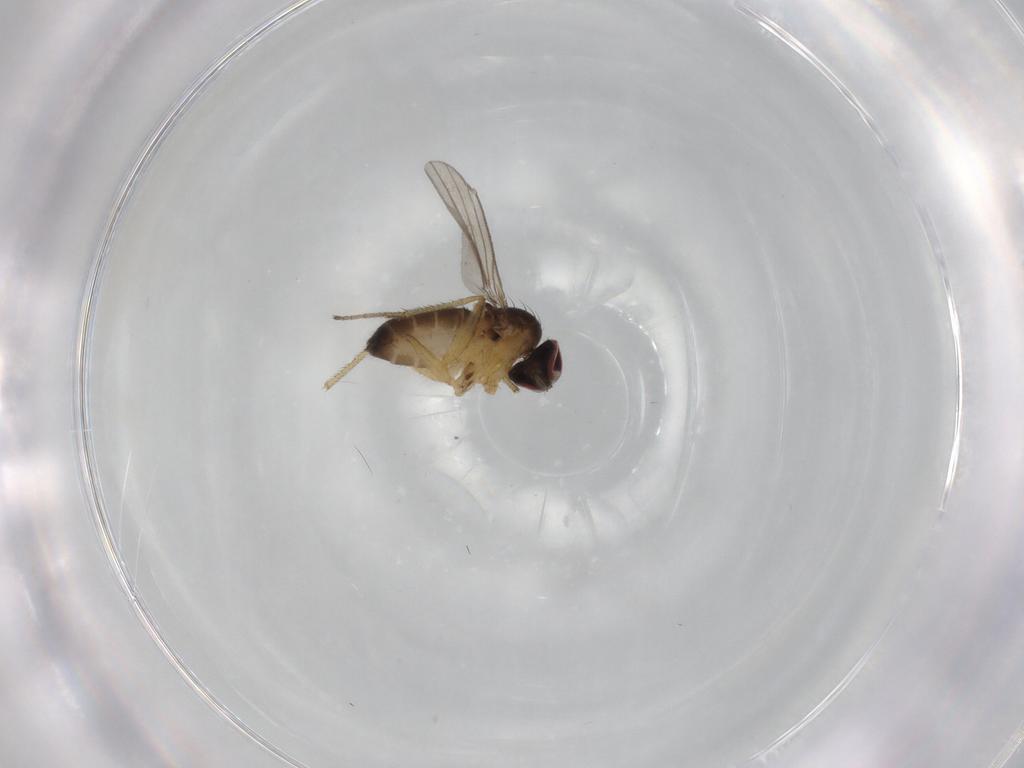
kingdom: Animalia
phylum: Arthropoda
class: Insecta
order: Diptera
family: Dolichopodidae
